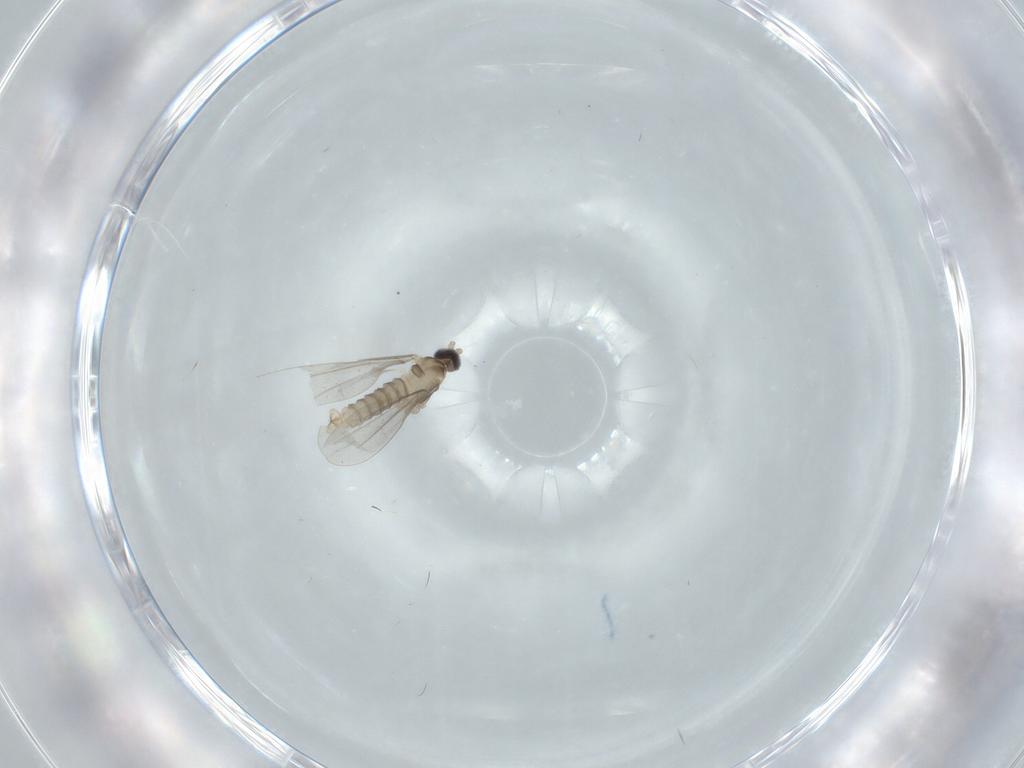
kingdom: Animalia
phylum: Arthropoda
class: Insecta
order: Diptera
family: Cecidomyiidae
